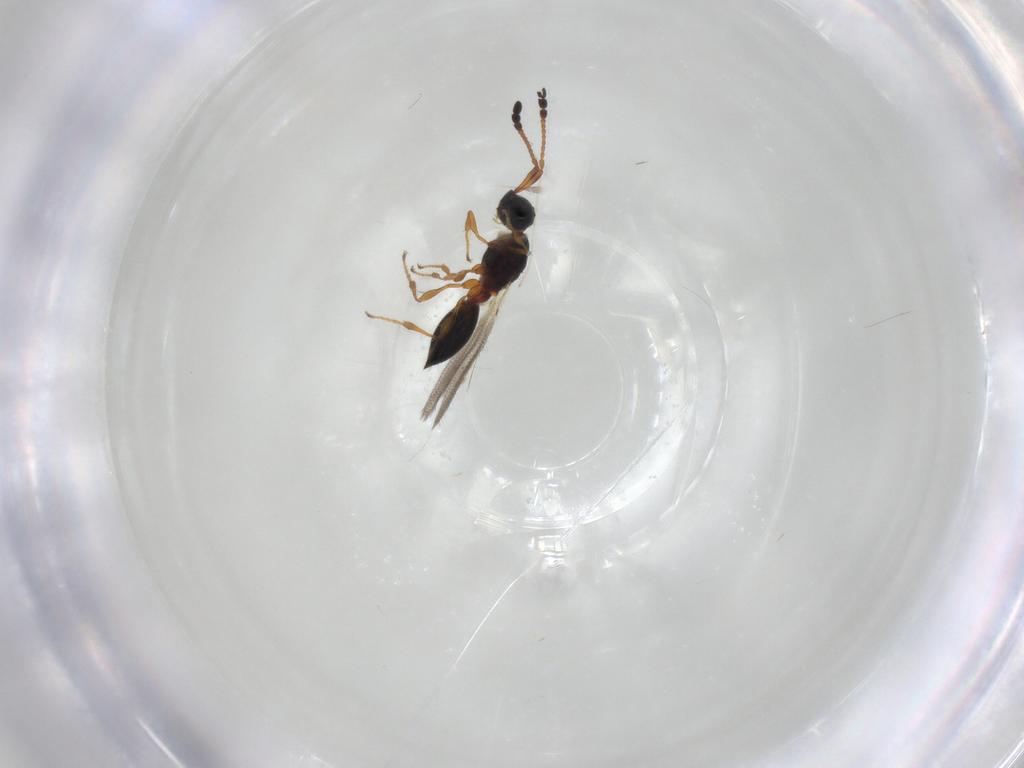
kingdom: Animalia
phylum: Arthropoda
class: Insecta
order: Hymenoptera
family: Diapriidae
